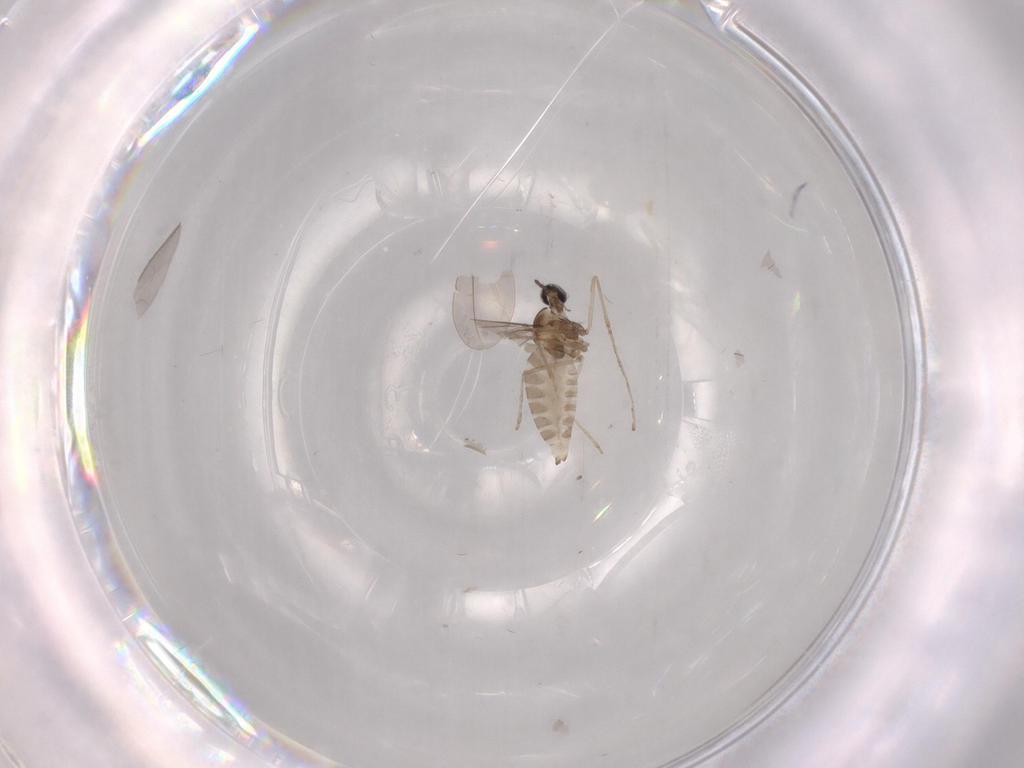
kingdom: Animalia
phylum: Arthropoda
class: Insecta
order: Diptera
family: Cecidomyiidae
